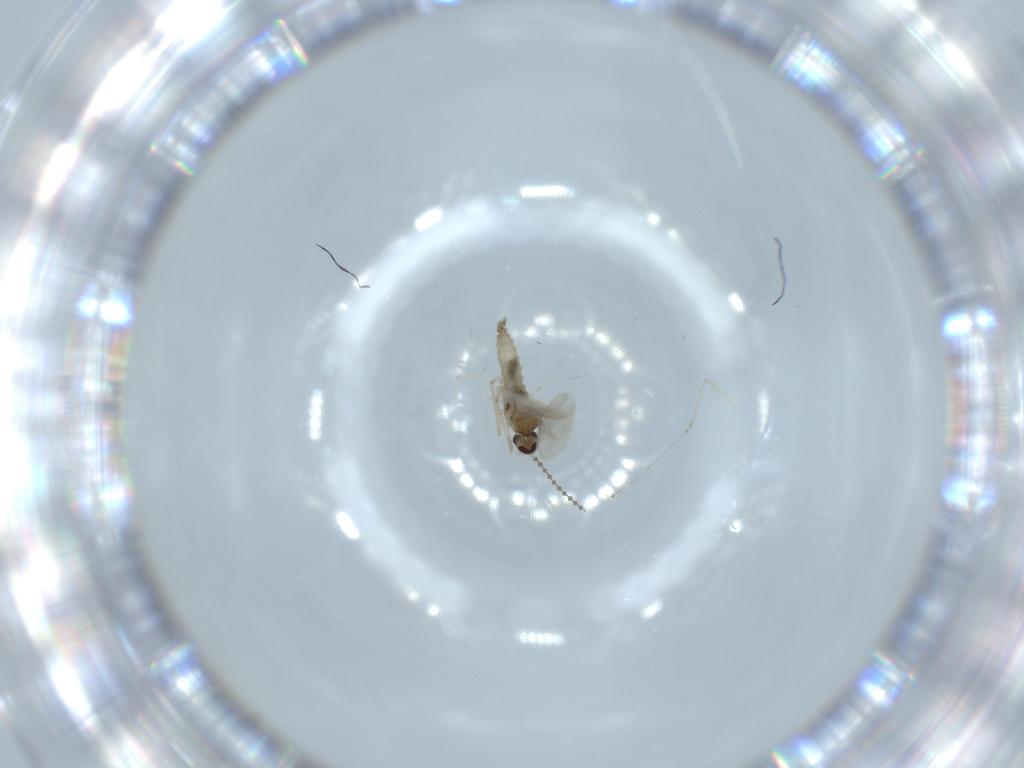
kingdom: Animalia
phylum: Arthropoda
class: Insecta
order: Diptera
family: Cecidomyiidae
